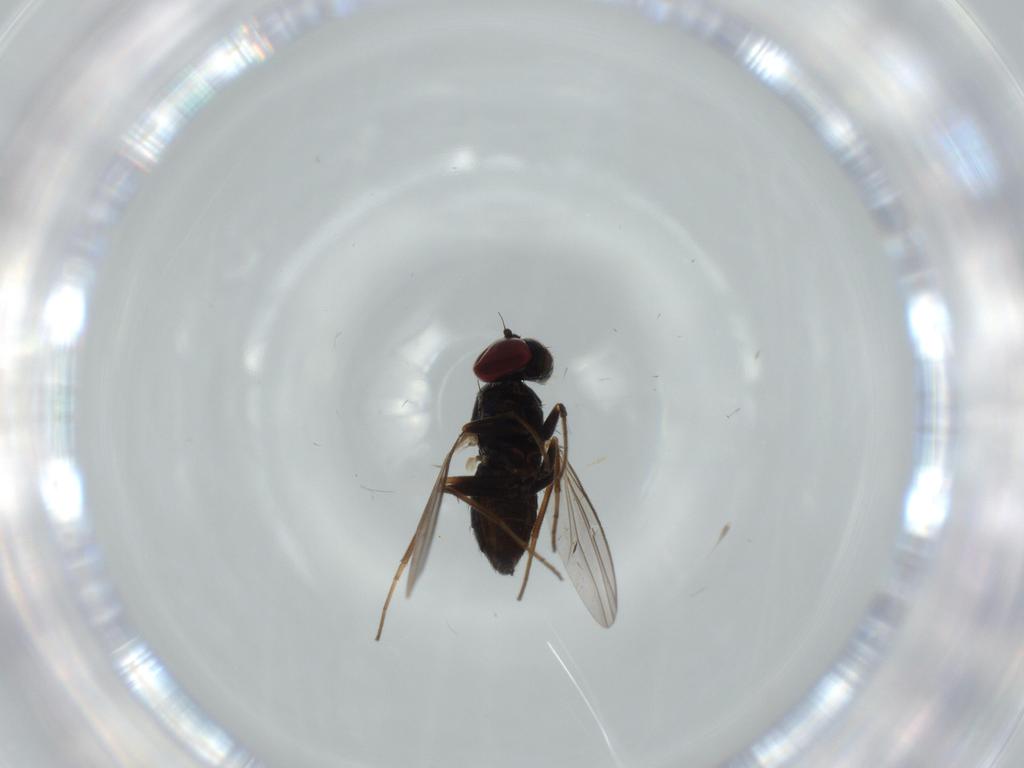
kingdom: Animalia
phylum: Arthropoda
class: Insecta
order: Diptera
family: Dolichopodidae
